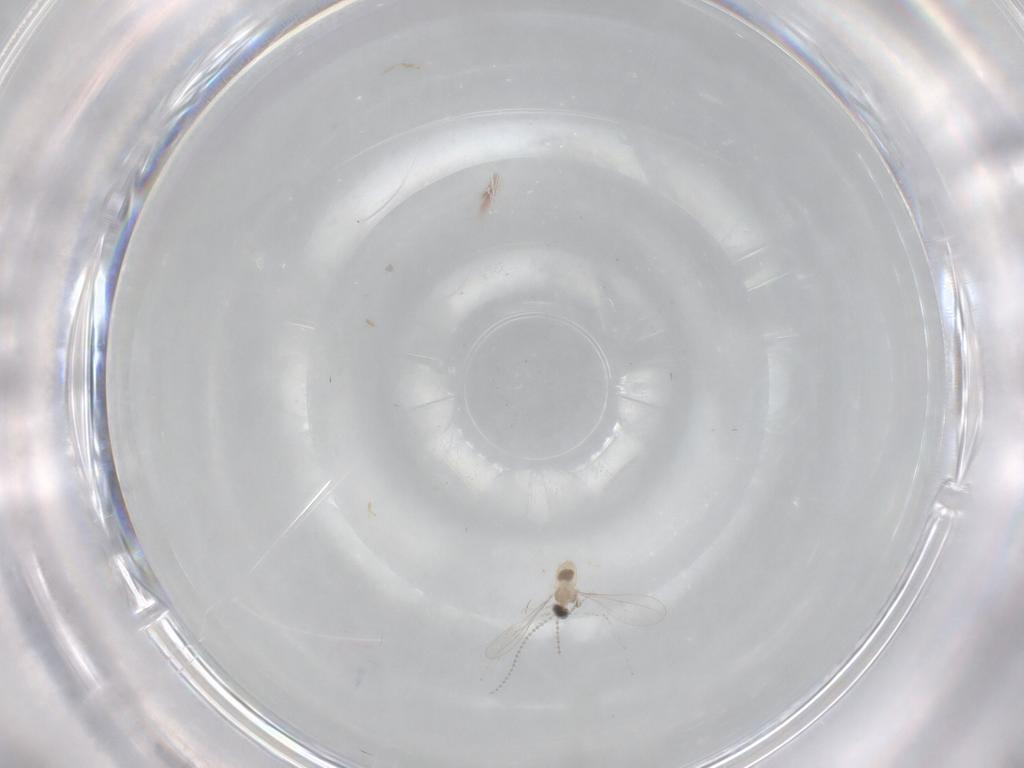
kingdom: Animalia
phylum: Arthropoda
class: Insecta
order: Diptera
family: Cecidomyiidae
